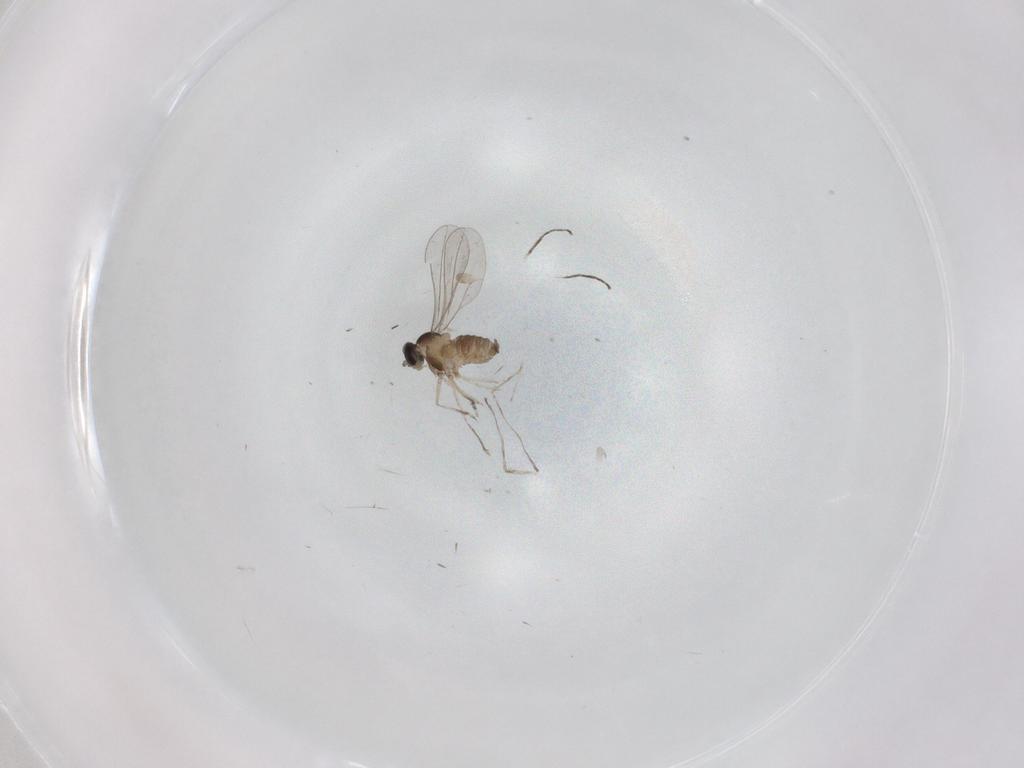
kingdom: Animalia
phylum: Arthropoda
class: Insecta
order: Diptera
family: Cecidomyiidae
